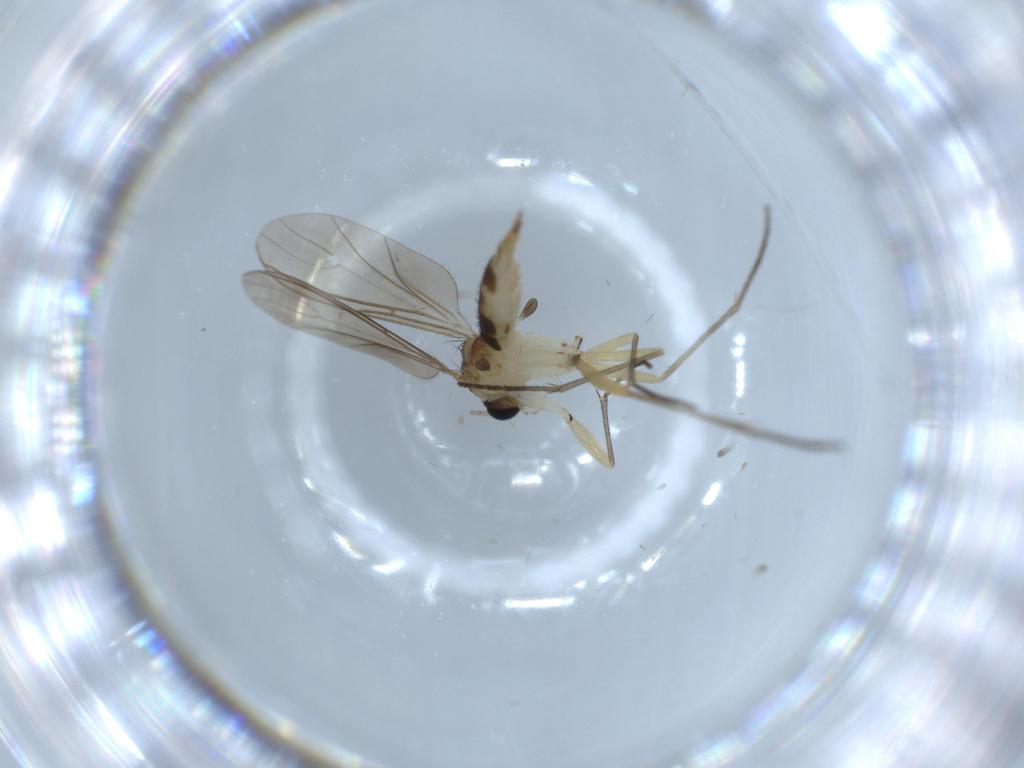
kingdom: Animalia
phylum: Arthropoda
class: Insecta
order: Diptera
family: Sciaridae
